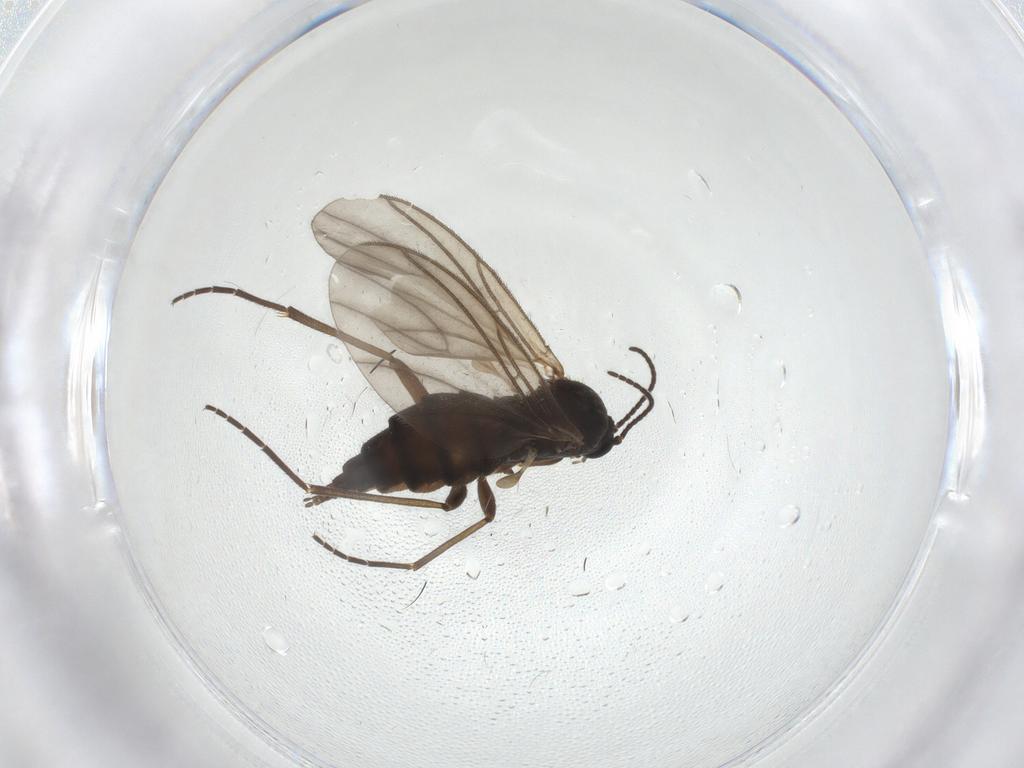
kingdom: Animalia
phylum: Arthropoda
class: Insecta
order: Diptera
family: Sciaridae
